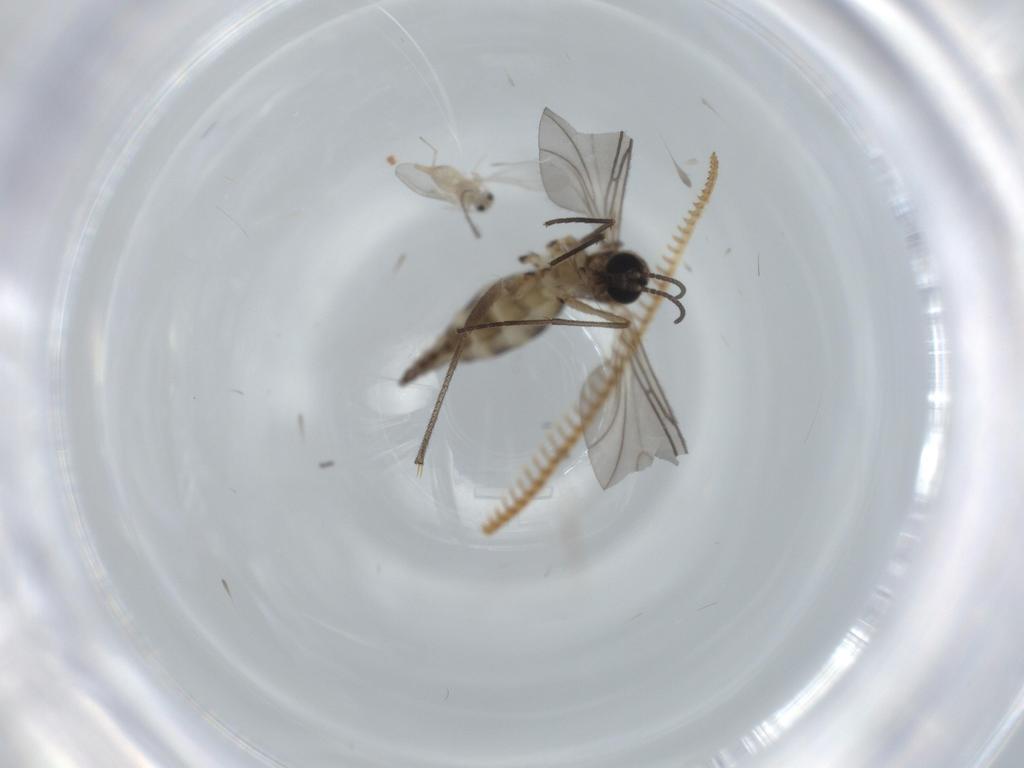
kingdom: Animalia
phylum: Arthropoda
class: Insecta
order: Diptera
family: Sciaridae
